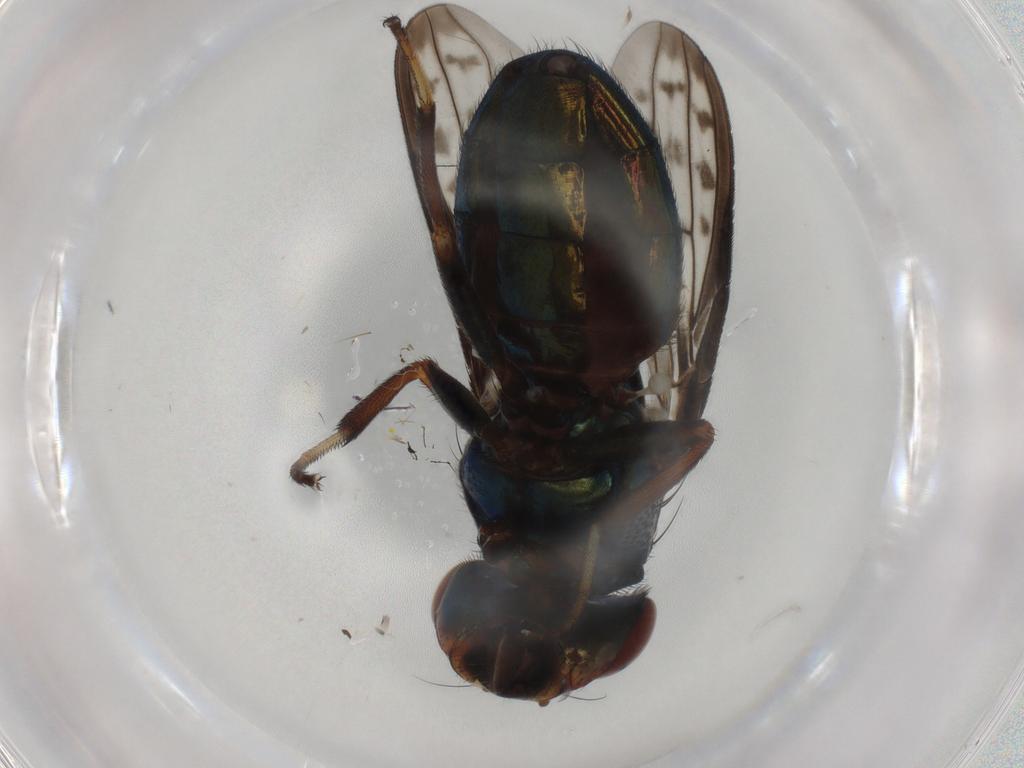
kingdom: Animalia
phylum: Arthropoda
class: Insecta
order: Diptera
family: Ulidiidae
